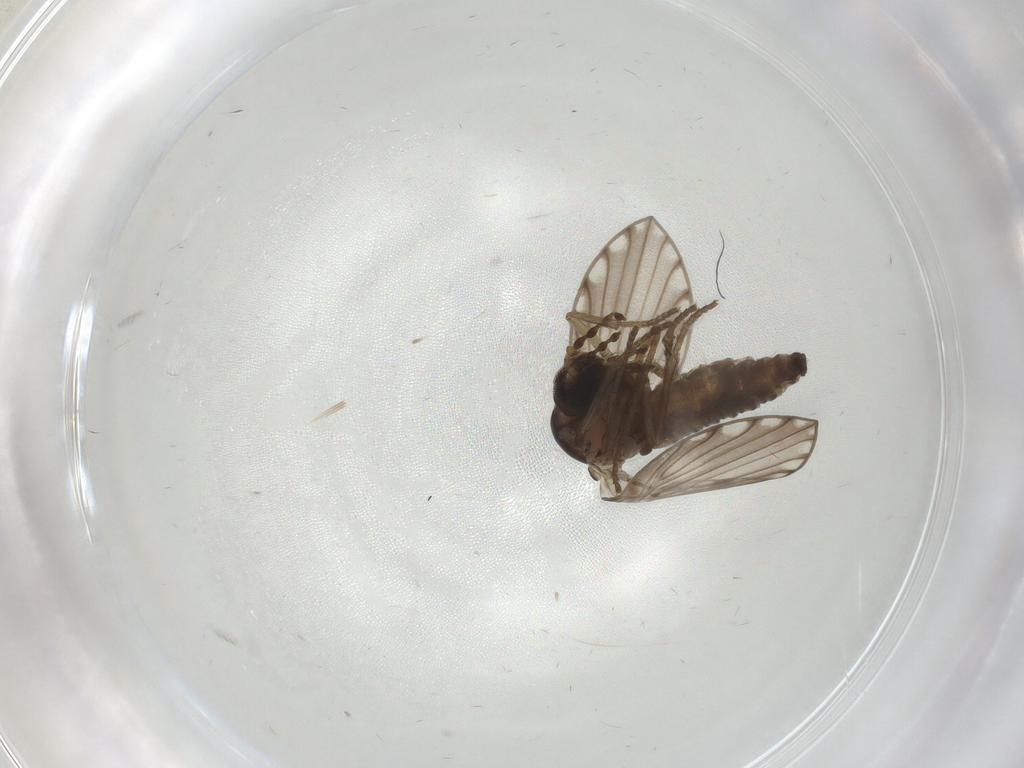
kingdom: Animalia
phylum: Arthropoda
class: Insecta
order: Diptera
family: Psychodidae
